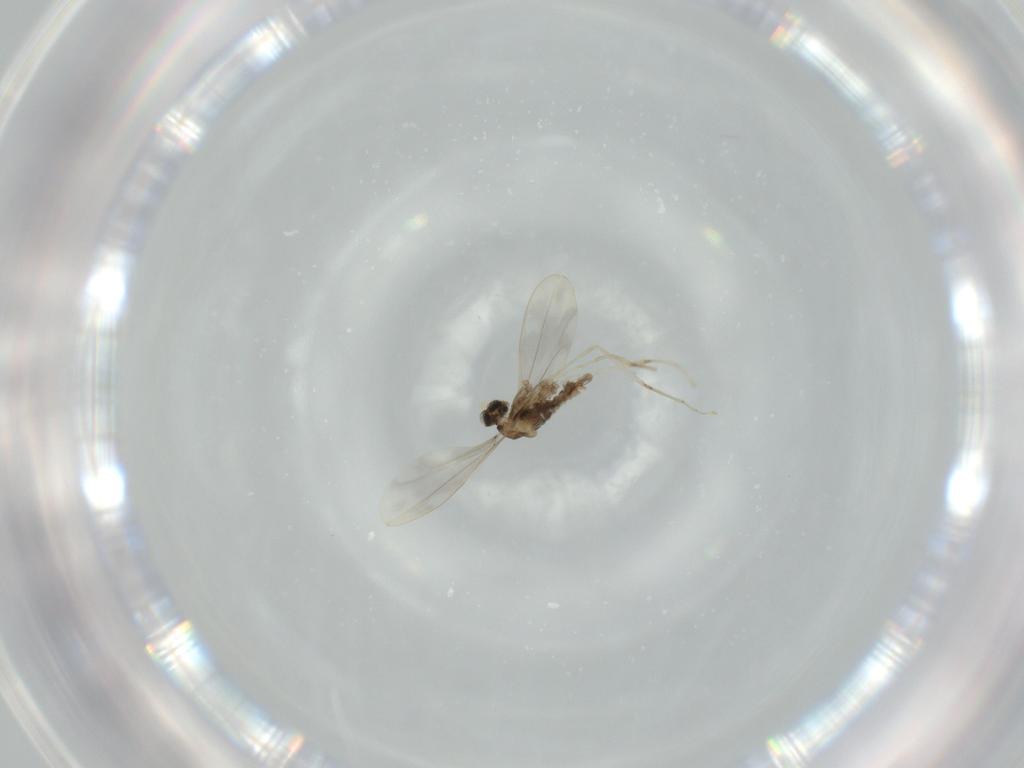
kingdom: Animalia
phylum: Arthropoda
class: Insecta
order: Diptera
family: Cecidomyiidae
